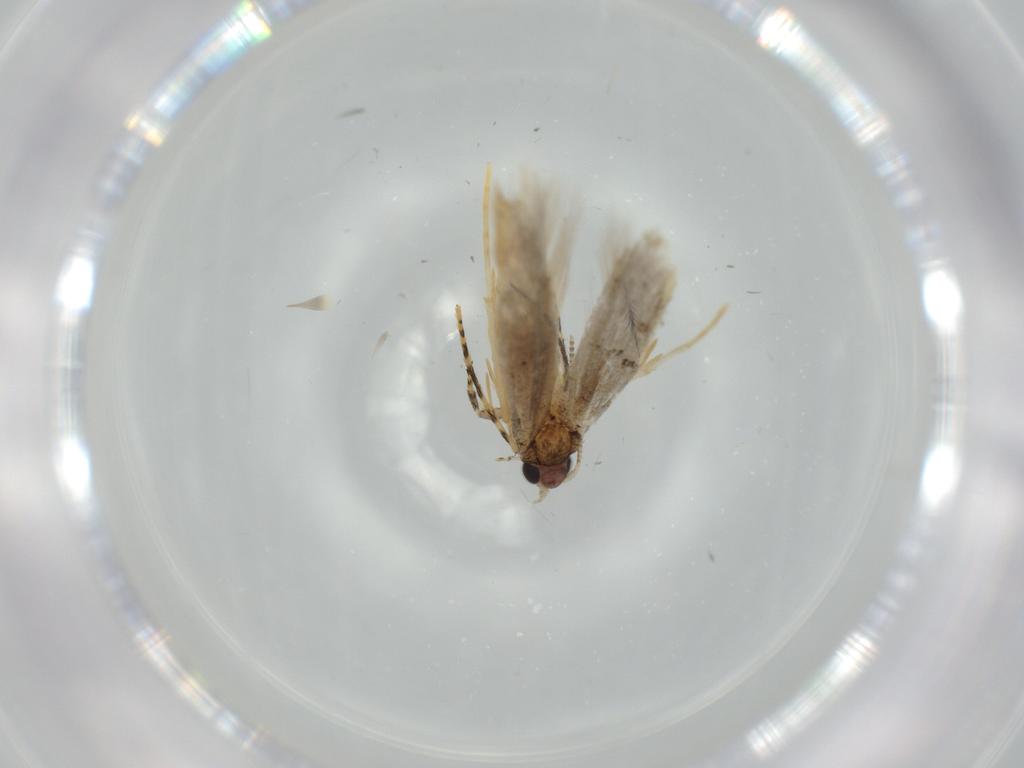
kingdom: Animalia
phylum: Arthropoda
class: Insecta
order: Lepidoptera
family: Tineidae
